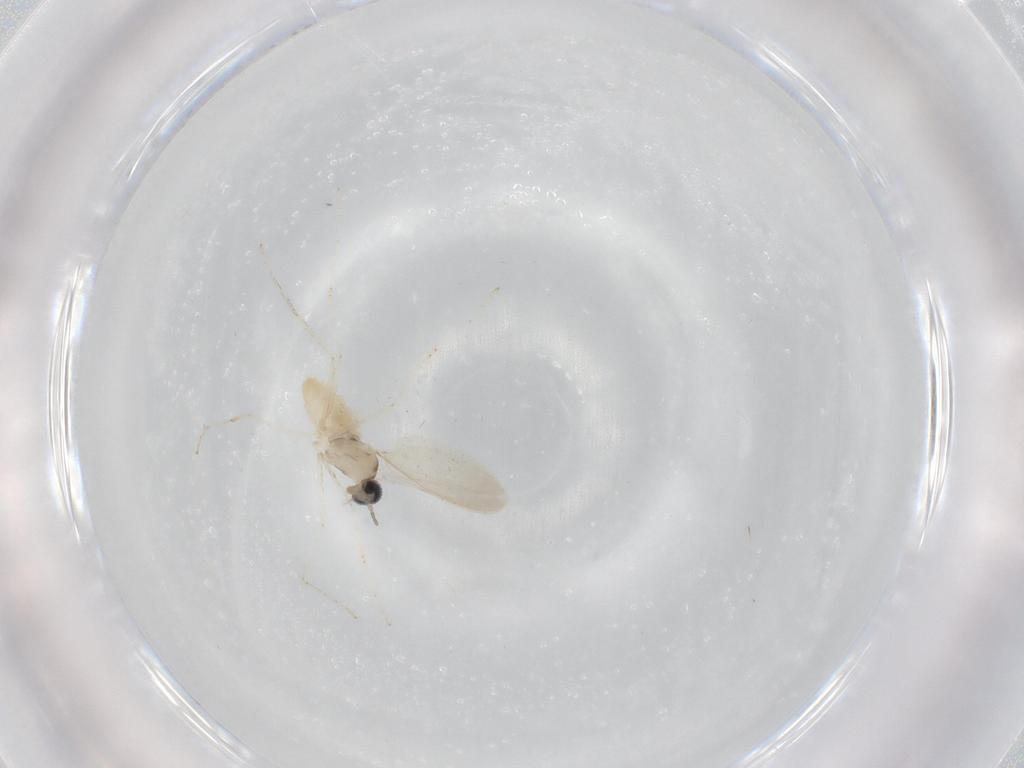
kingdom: Animalia
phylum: Arthropoda
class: Insecta
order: Diptera
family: Cecidomyiidae
